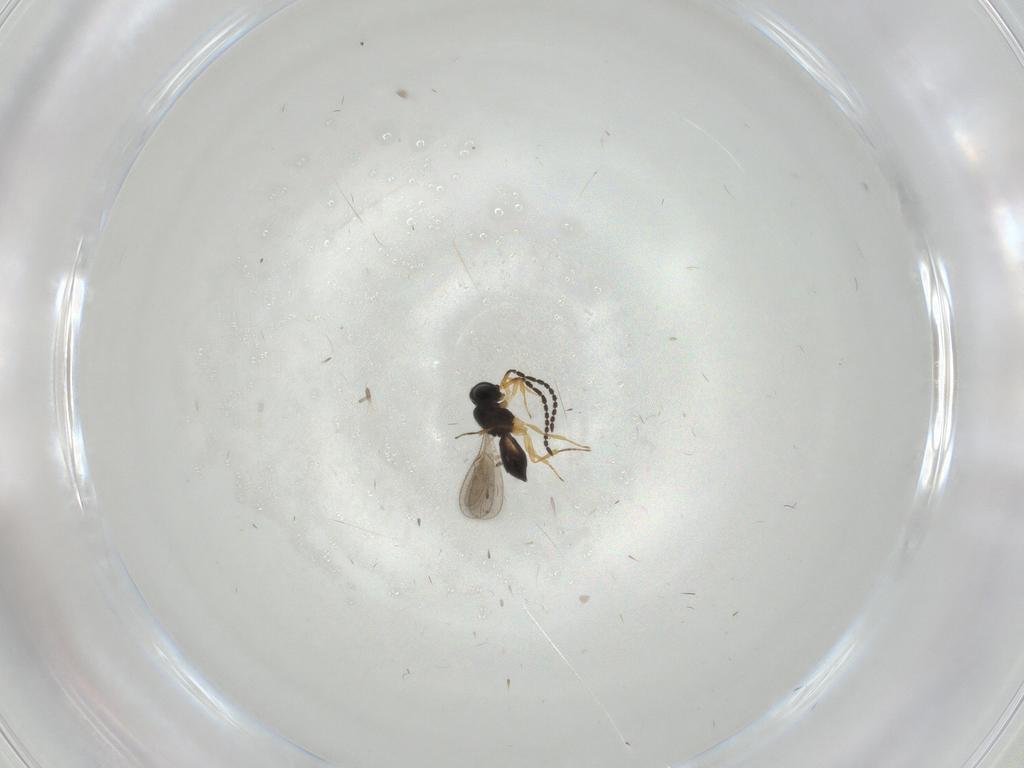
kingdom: Animalia
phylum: Arthropoda
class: Insecta
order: Hymenoptera
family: Scelionidae
